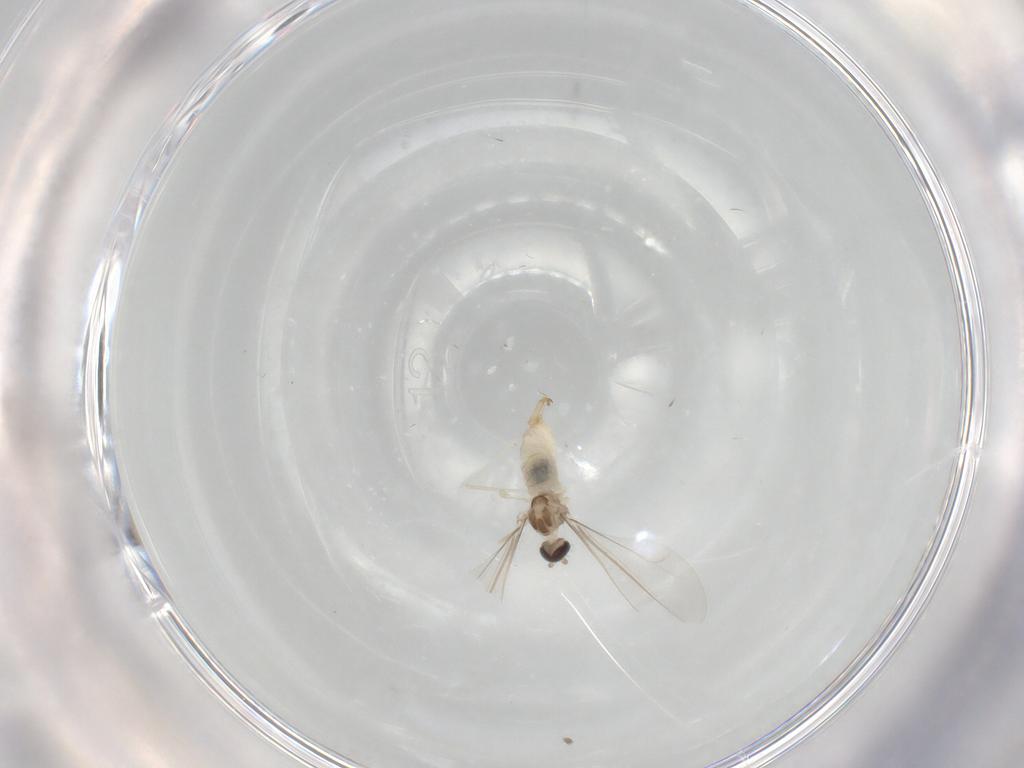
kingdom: Animalia
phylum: Arthropoda
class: Insecta
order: Diptera
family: Cecidomyiidae
